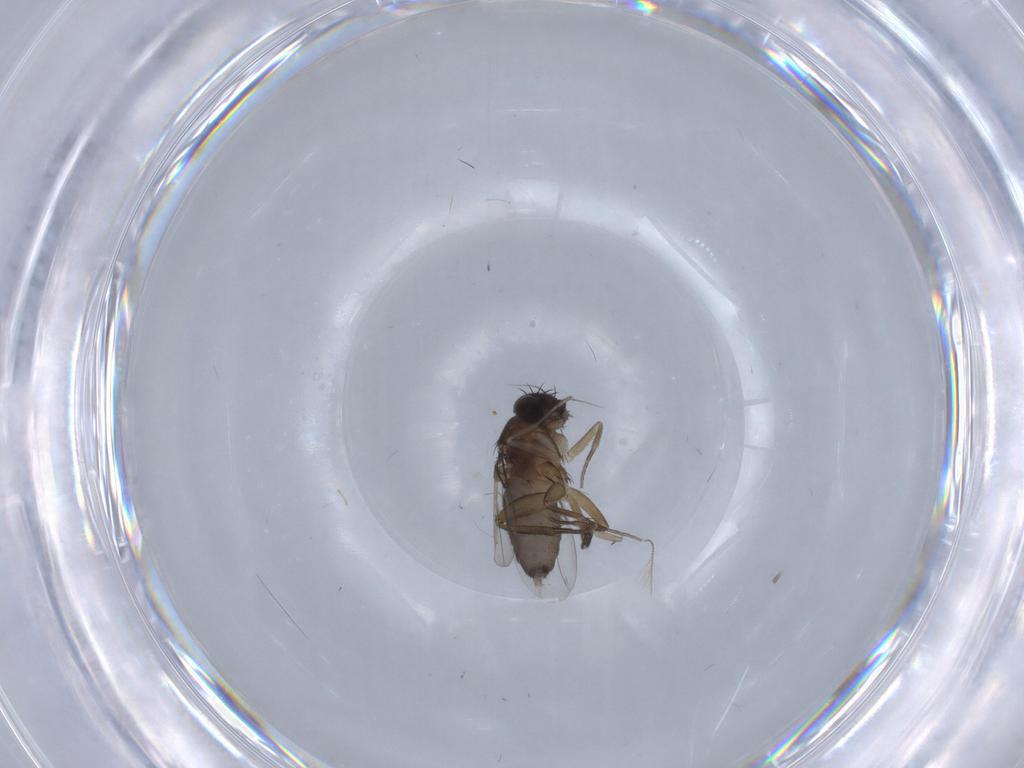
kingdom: Animalia
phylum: Arthropoda
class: Insecta
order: Diptera
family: Phoridae
